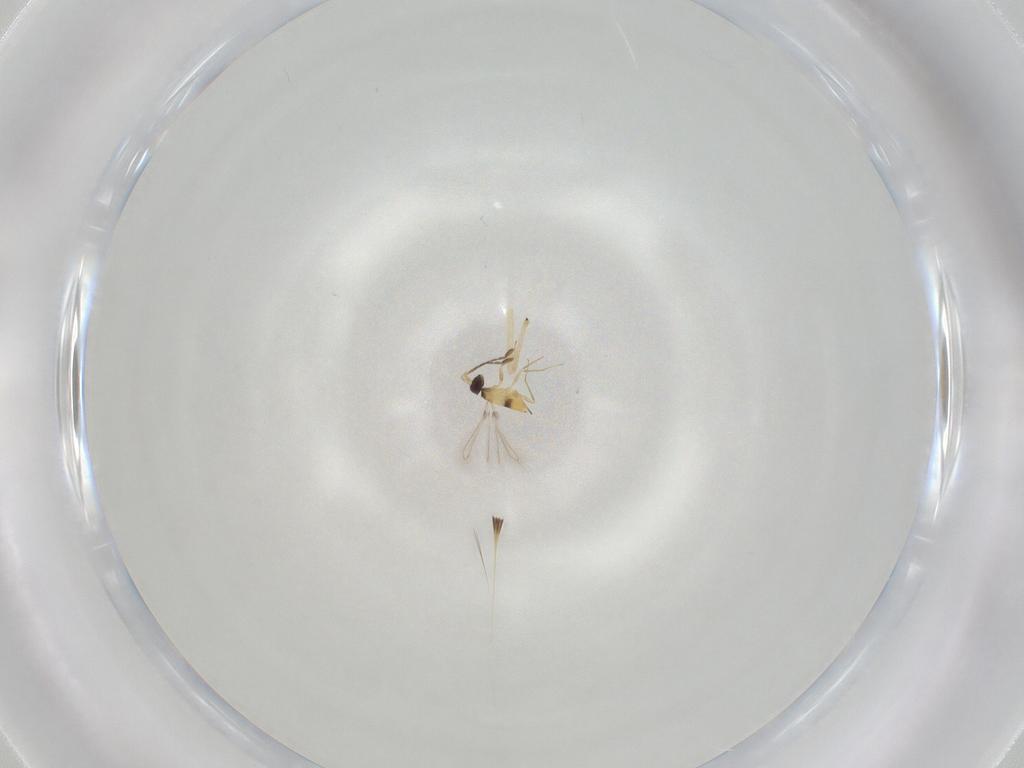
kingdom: Animalia
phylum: Arthropoda
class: Insecta
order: Hymenoptera
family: Mymaridae
